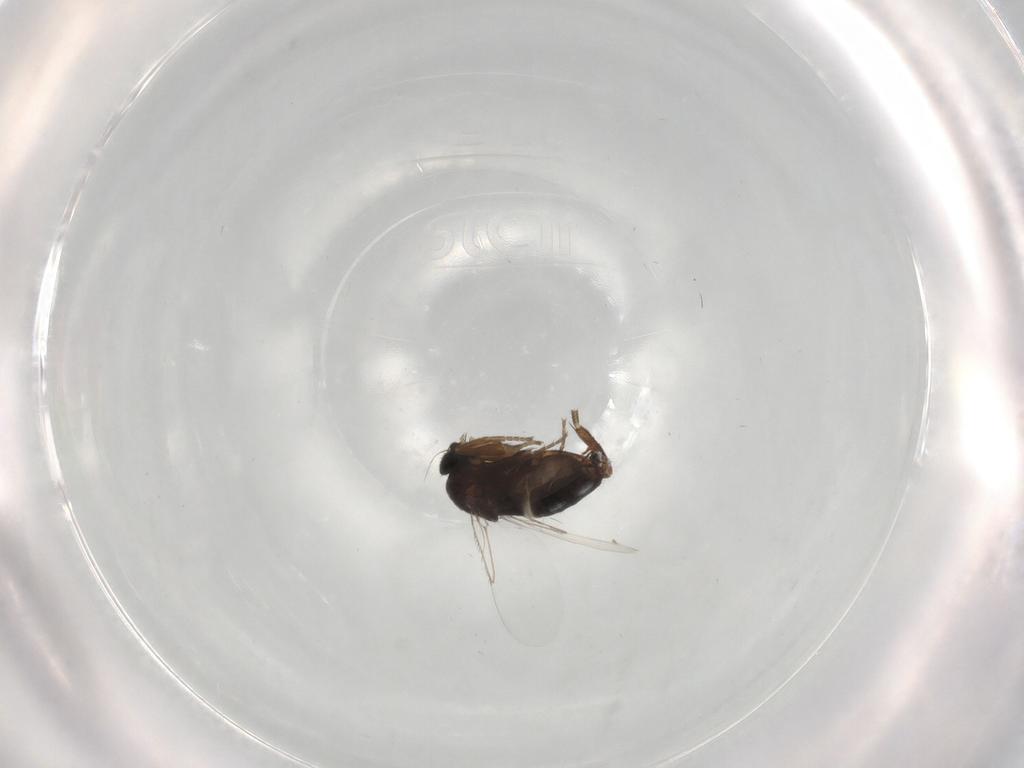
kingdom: Animalia
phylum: Arthropoda
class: Insecta
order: Diptera
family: Phoridae
